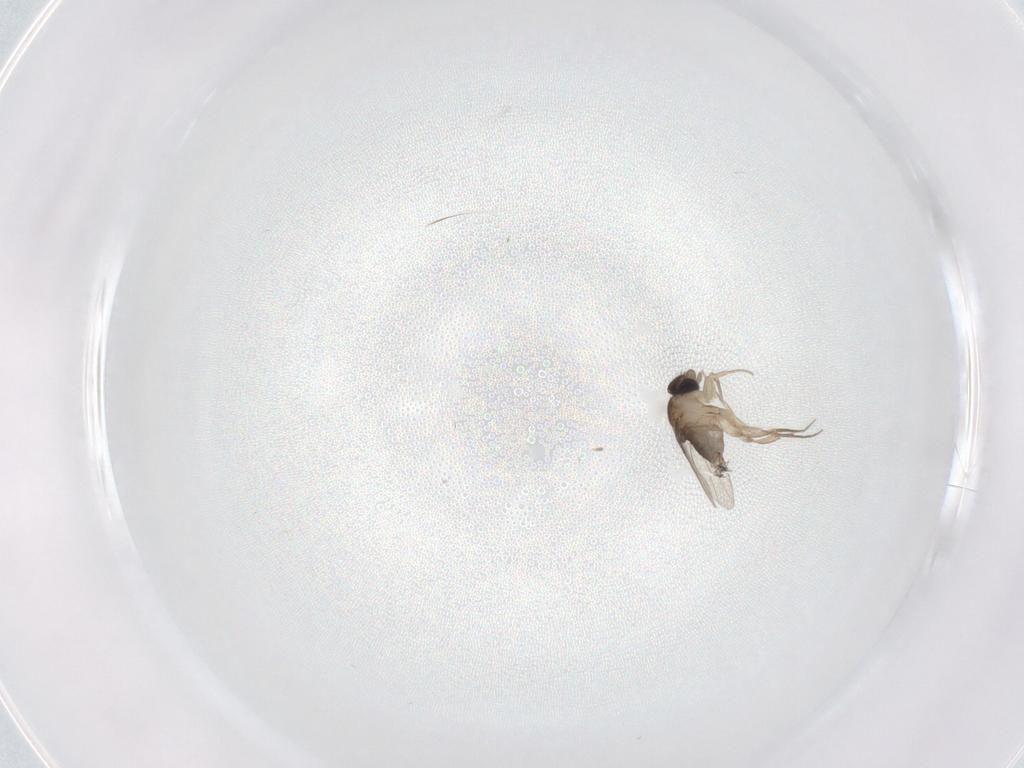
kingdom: Animalia
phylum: Arthropoda
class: Insecta
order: Diptera
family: Phoridae
